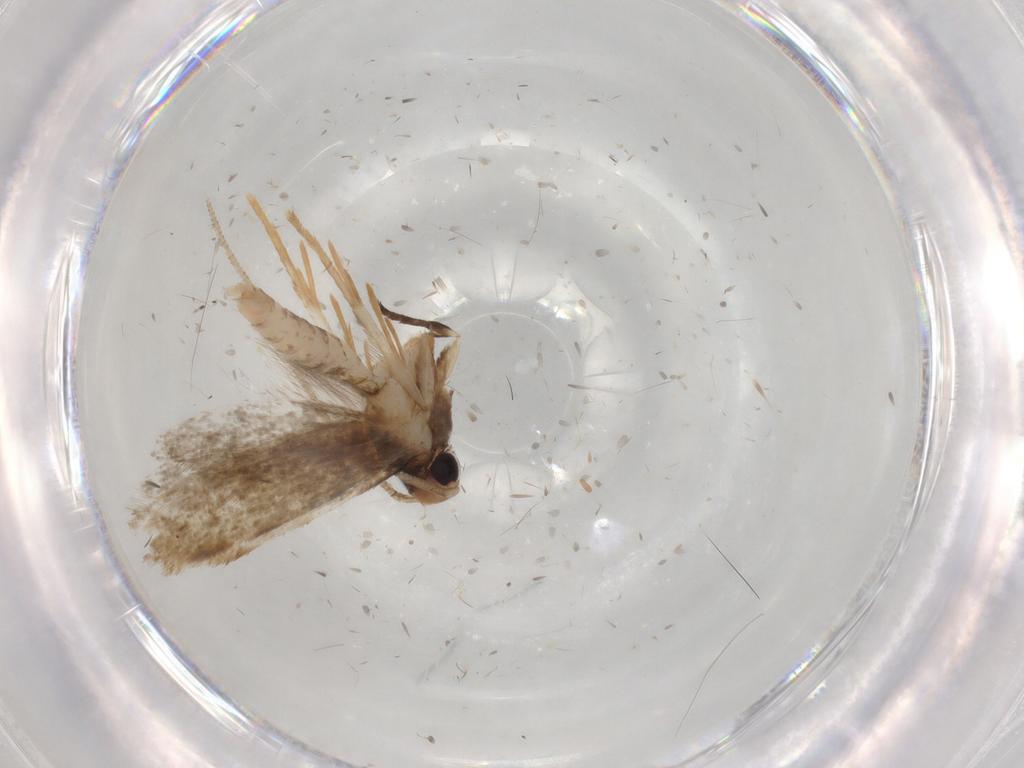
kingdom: Animalia
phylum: Arthropoda
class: Insecta
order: Lepidoptera
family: Cosmopterigidae
